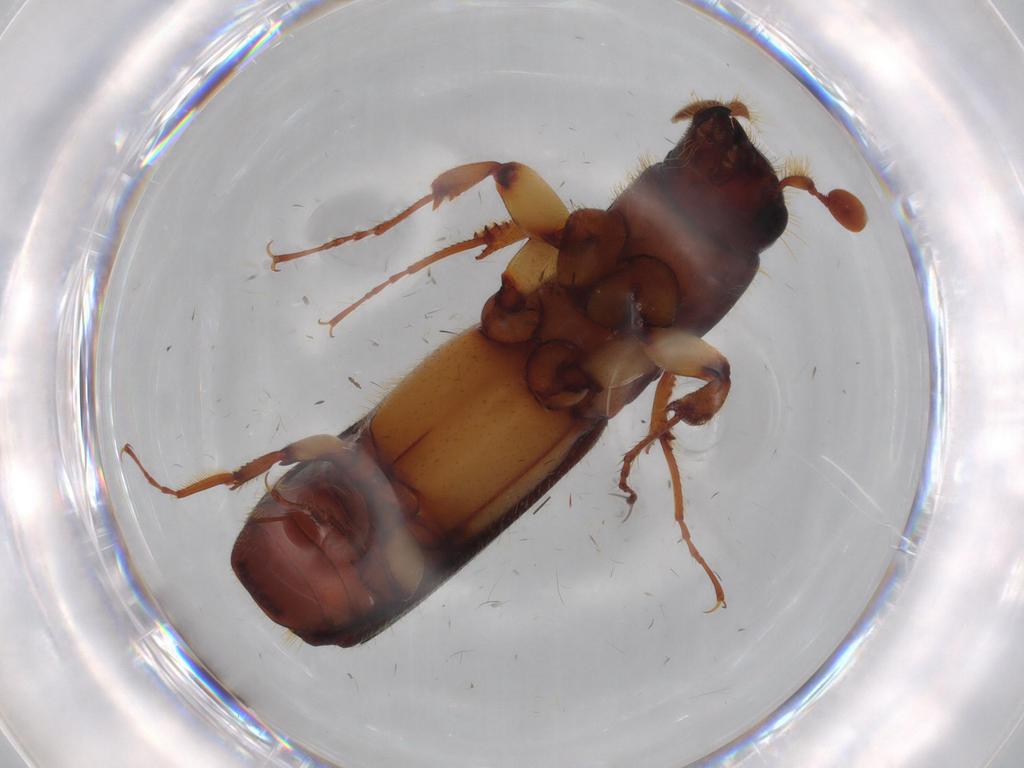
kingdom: Animalia
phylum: Arthropoda
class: Insecta
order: Coleoptera
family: Curculionidae
